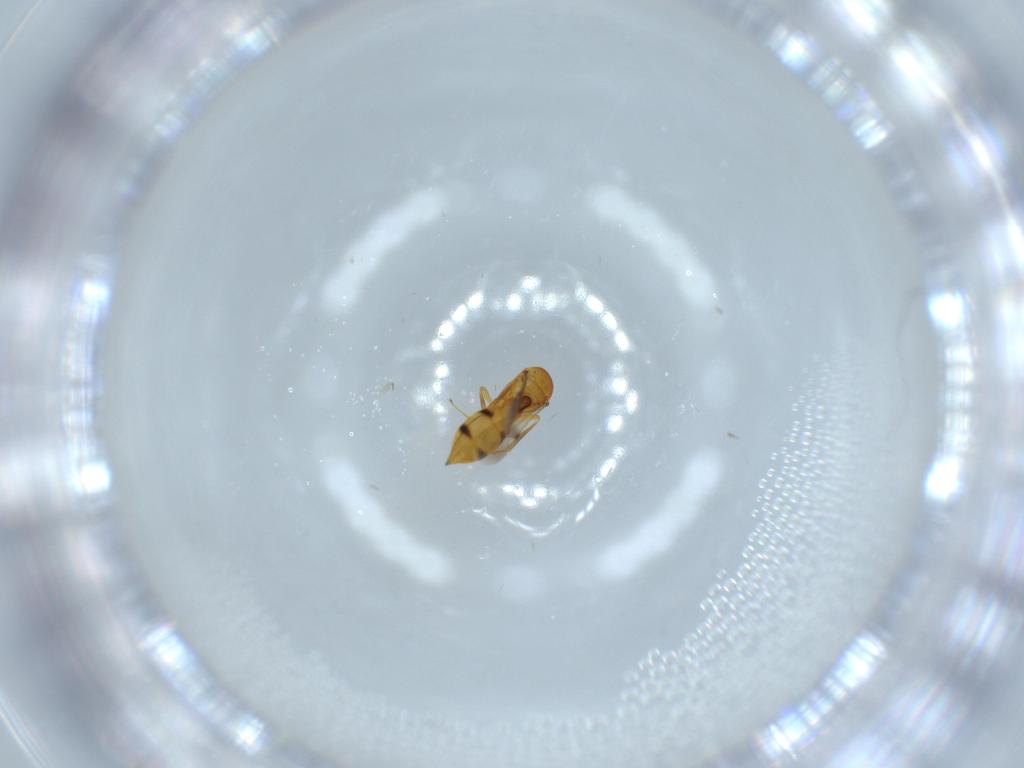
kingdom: Animalia
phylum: Arthropoda
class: Insecta
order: Hymenoptera
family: Scelionidae
